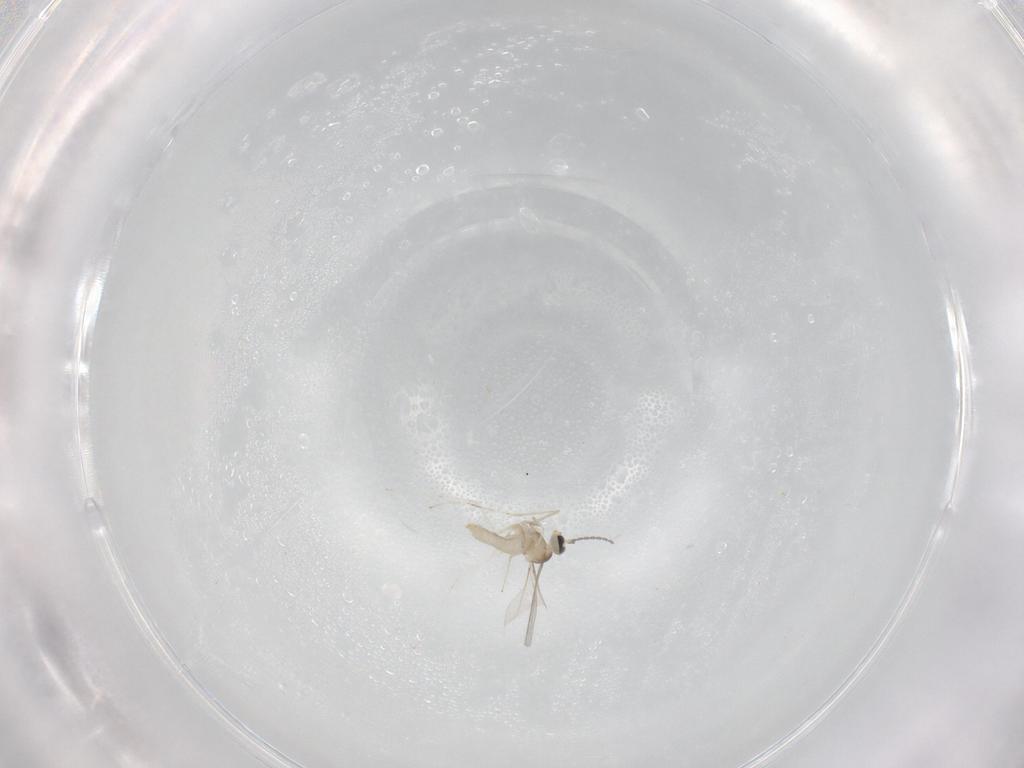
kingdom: Animalia
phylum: Arthropoda
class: Insecta
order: Diptera
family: Cecidomyiidae
